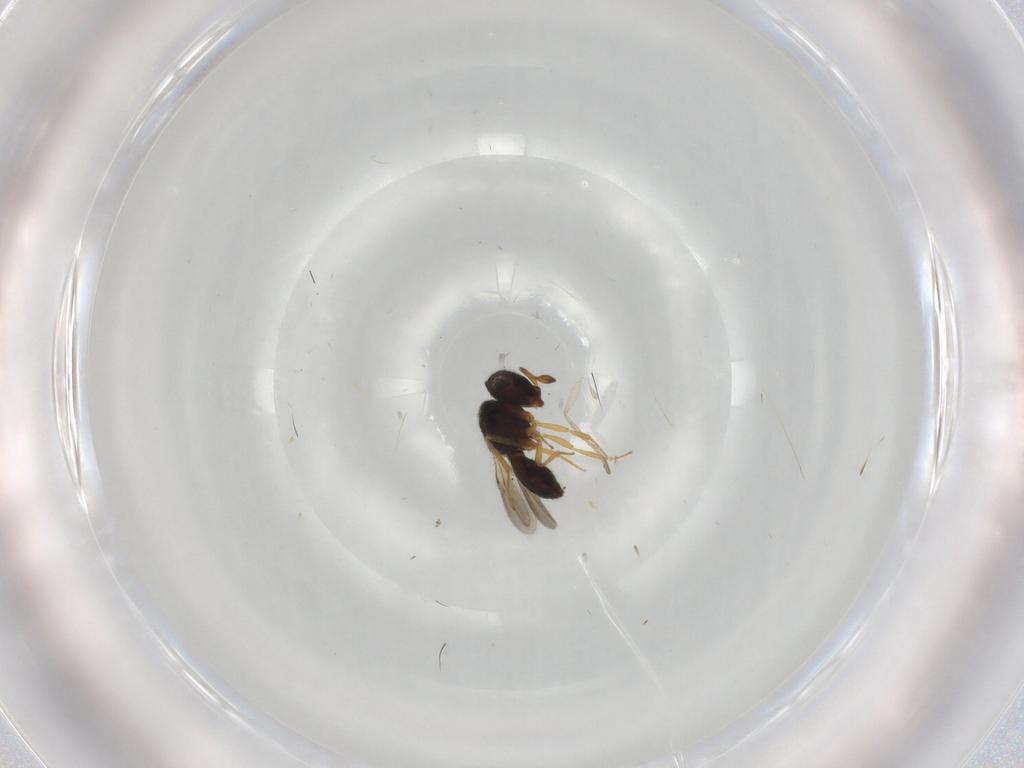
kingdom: Animalia
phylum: Arthropoda
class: Insecta
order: Hymenoptera
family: Scelionidae
